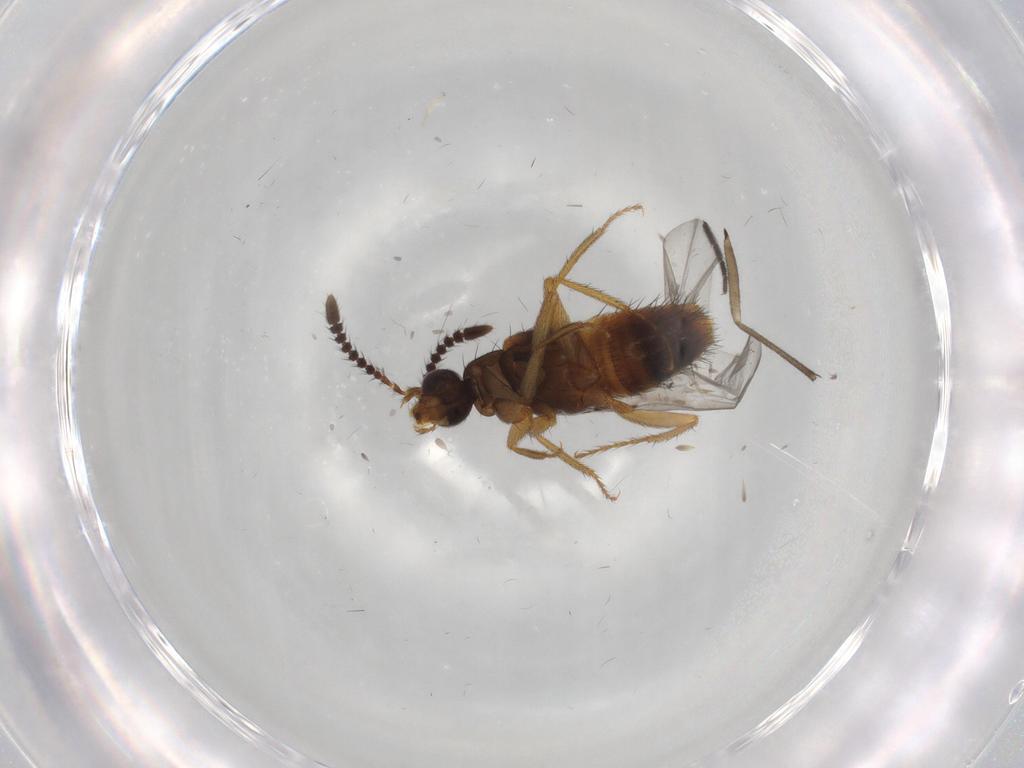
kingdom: Animalia
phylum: Arthropoda
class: Insecta
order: Coleoptera
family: Staphylinidae
